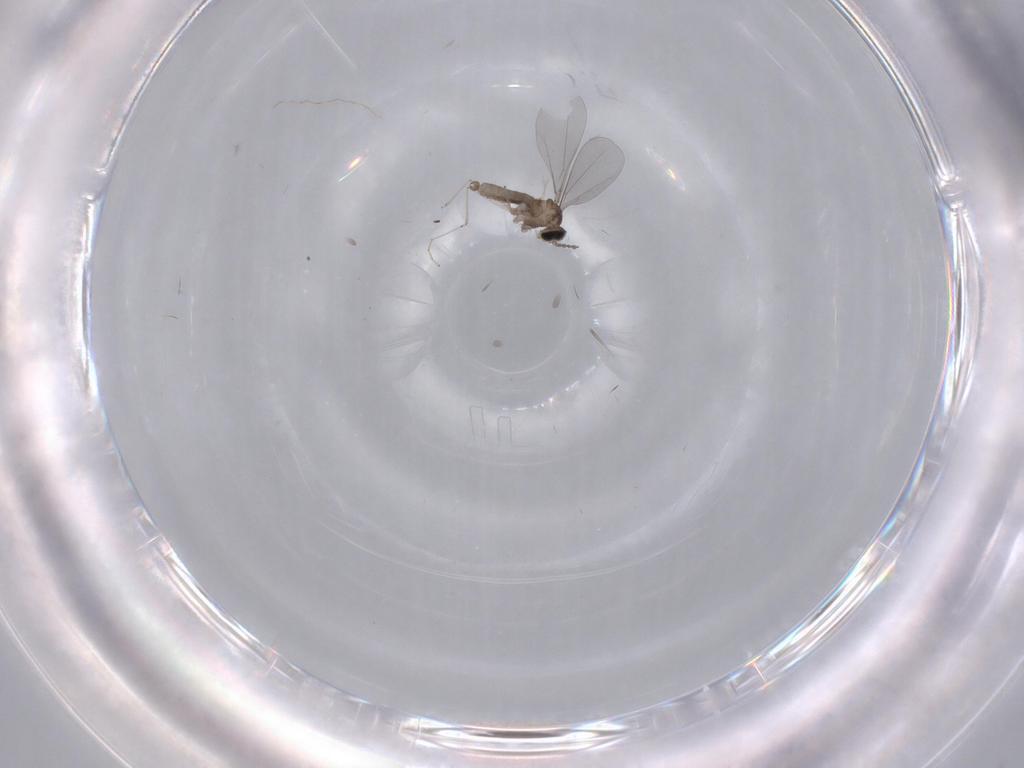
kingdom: Animalia
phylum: Arthropoda
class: Insecta
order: Diptera
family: Cecidomyiidae
